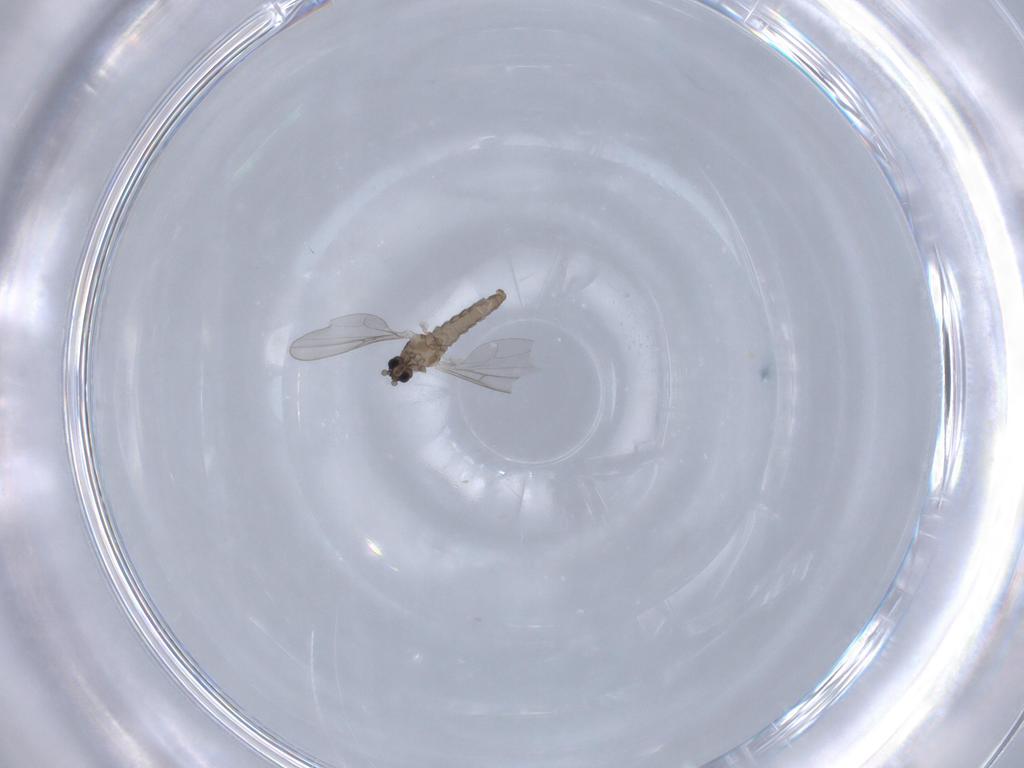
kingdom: Animalia
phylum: Arthropoda
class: Insecta
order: Diptera
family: Cecidomyiidae
